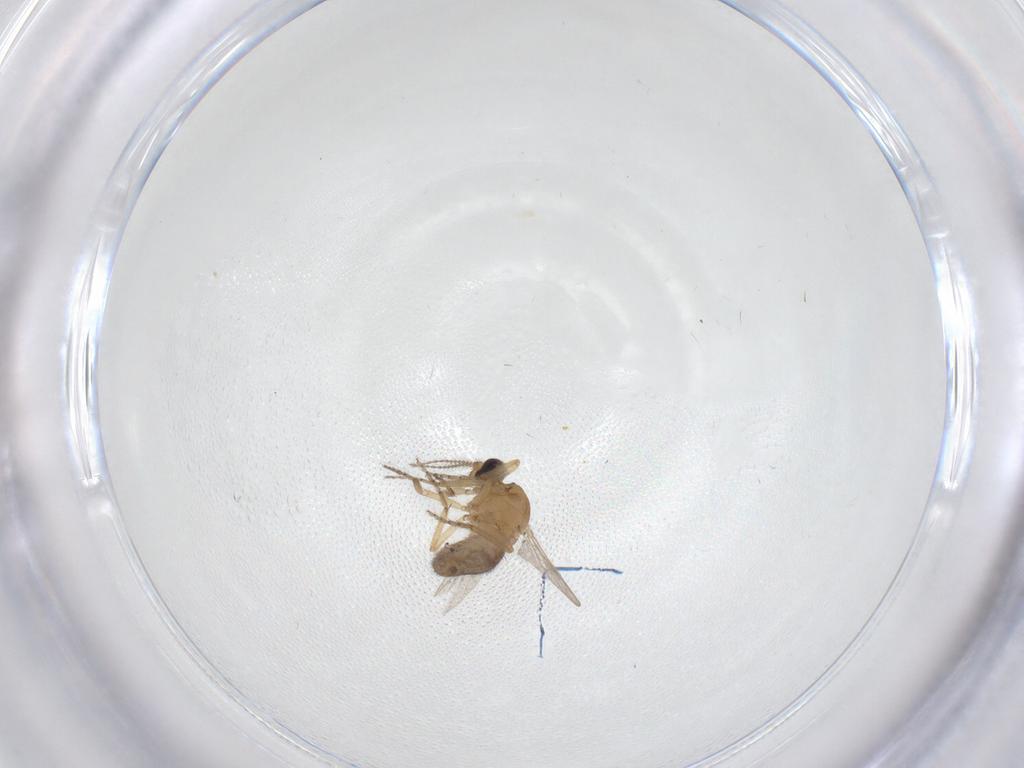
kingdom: Animalia
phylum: Arthropoda
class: Insecta
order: Diptera
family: Ceratopogonidae
